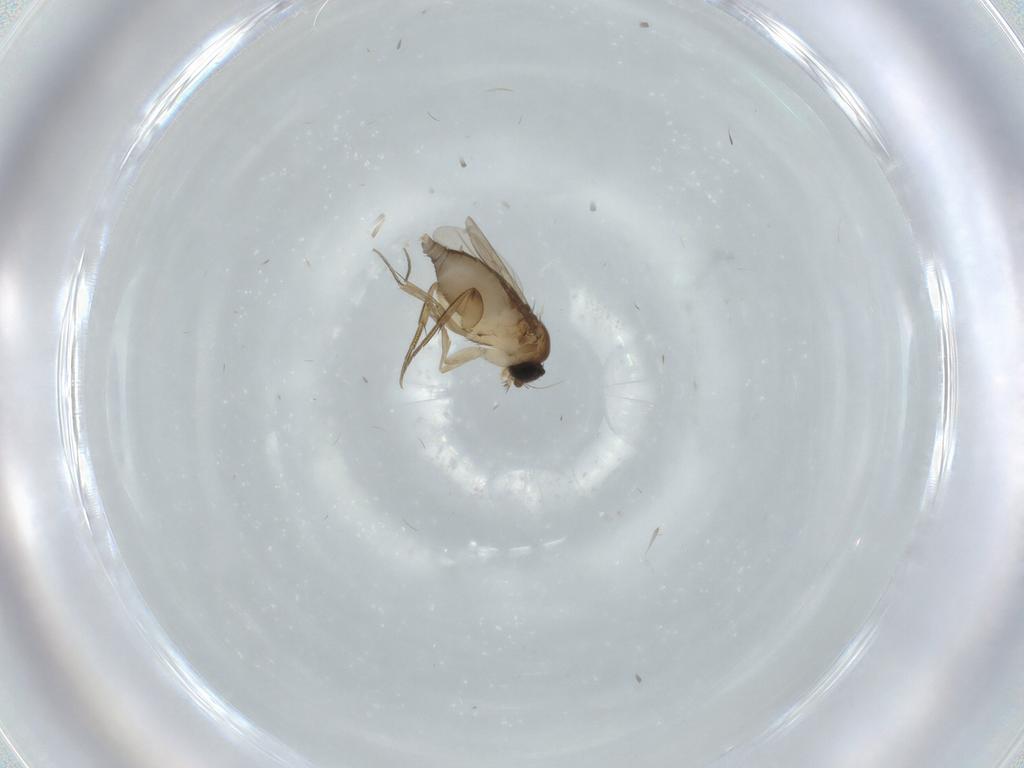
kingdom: Animalia
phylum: Arthropoda
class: Insecta
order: Diptera
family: Phoridae
